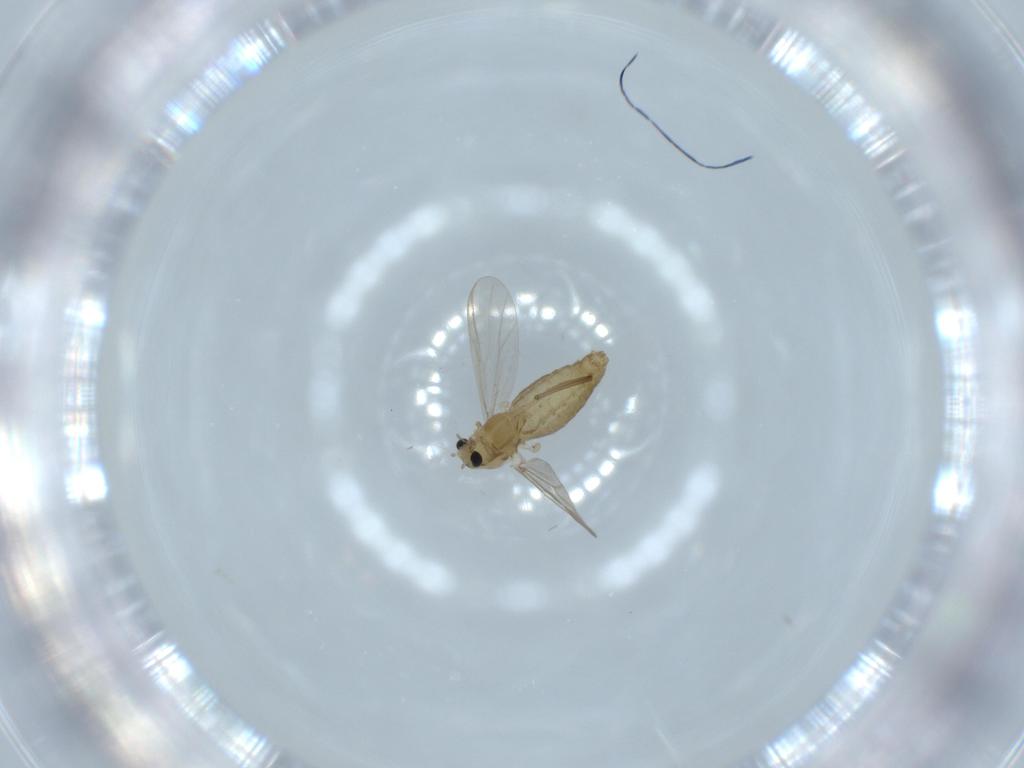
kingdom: Animalia
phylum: Arthropoda
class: Insecta
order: Diptera
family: Chironomidae
